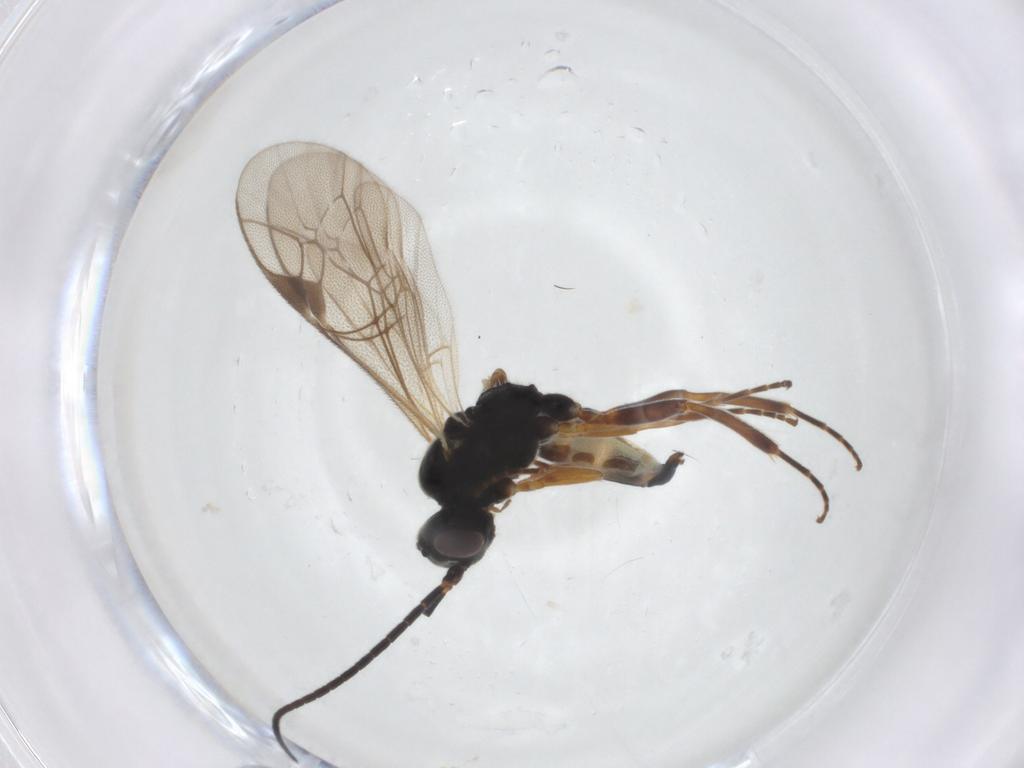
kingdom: Animalia
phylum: Arthropoda
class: Insecta
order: Hymenoptera
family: Ichneumonidae
